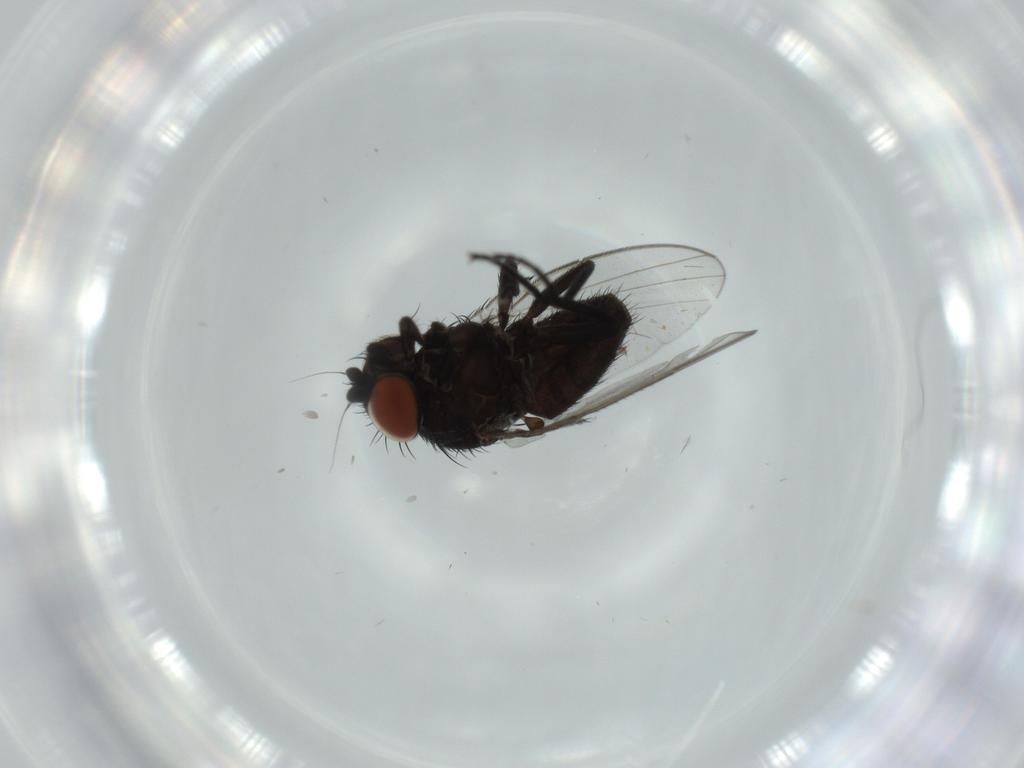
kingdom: Animalia
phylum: Arthropoda
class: Insecta
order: Diptera
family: Milichiidae
